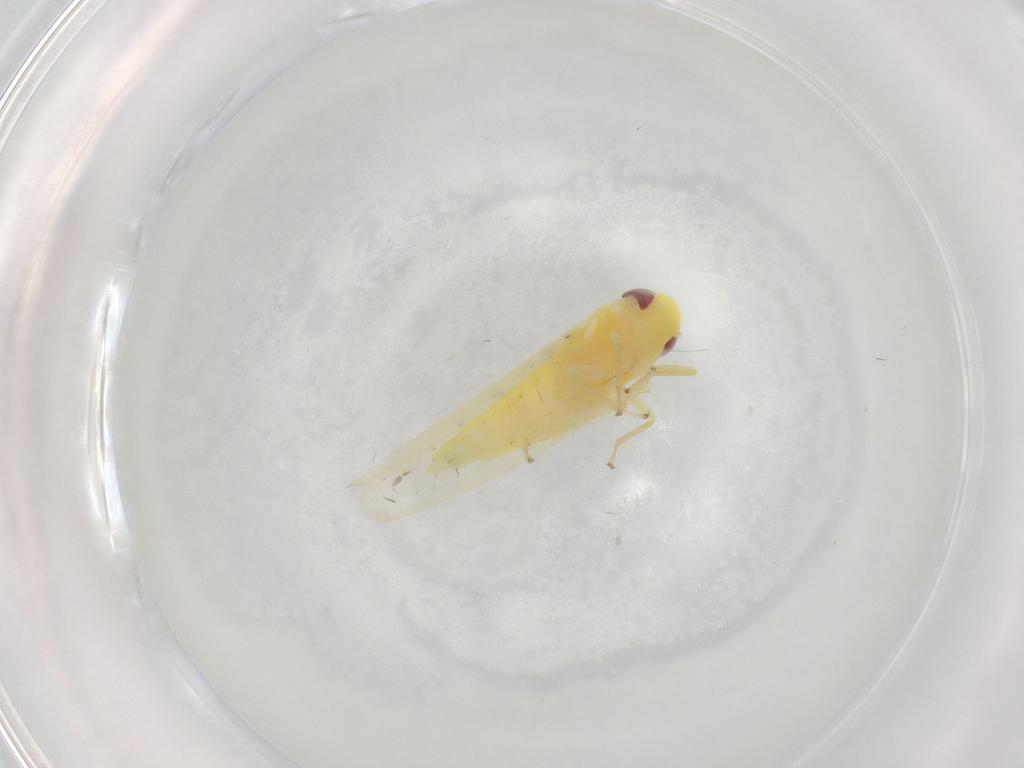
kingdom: Animalia
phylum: Arthropoda
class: Insecta
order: Hemiptera
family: Cicadellidae
